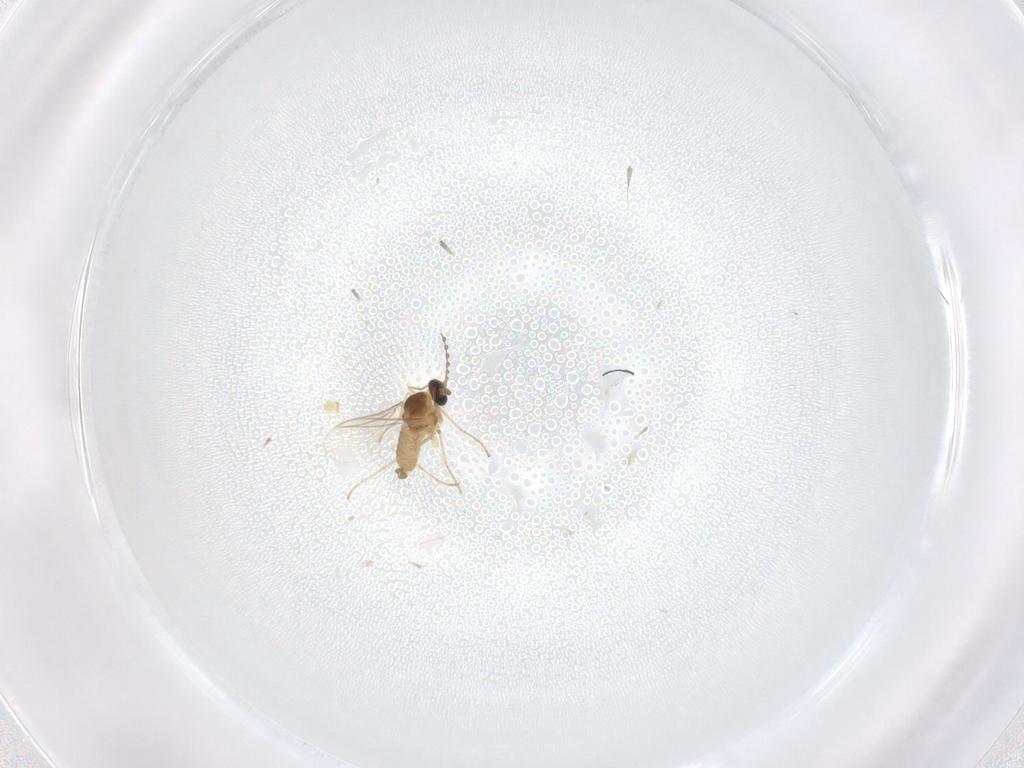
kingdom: Animalia
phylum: Arthropoda
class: Insecta
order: Diptera
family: Cecidomyiidae
